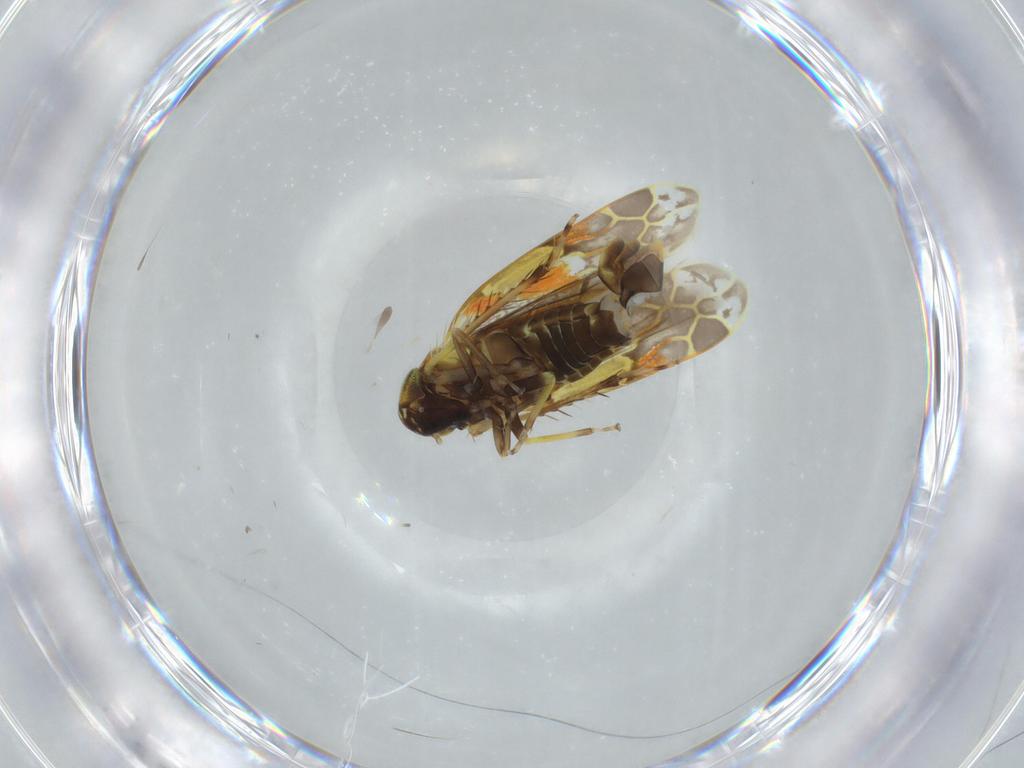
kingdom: Animalia
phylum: Arthropoda
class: Insecta
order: Hemiptera
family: Cicadellidae
